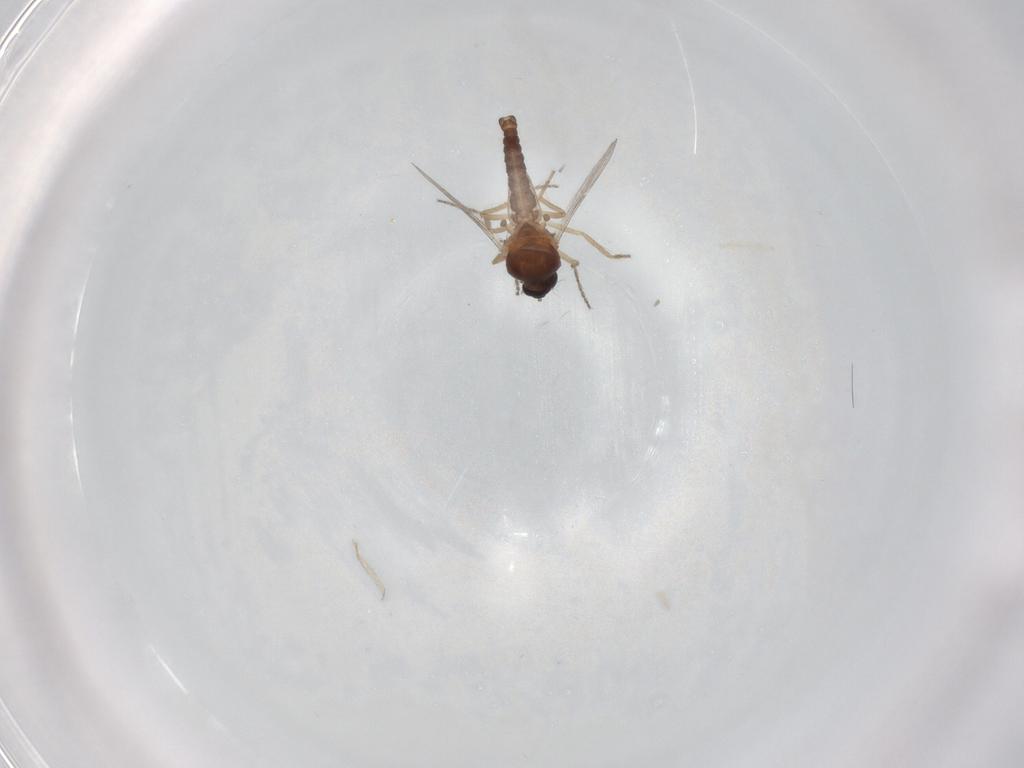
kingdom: Animalia
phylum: Arthropoda
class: Insecta
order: Diptera
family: Ceratopogonidae
